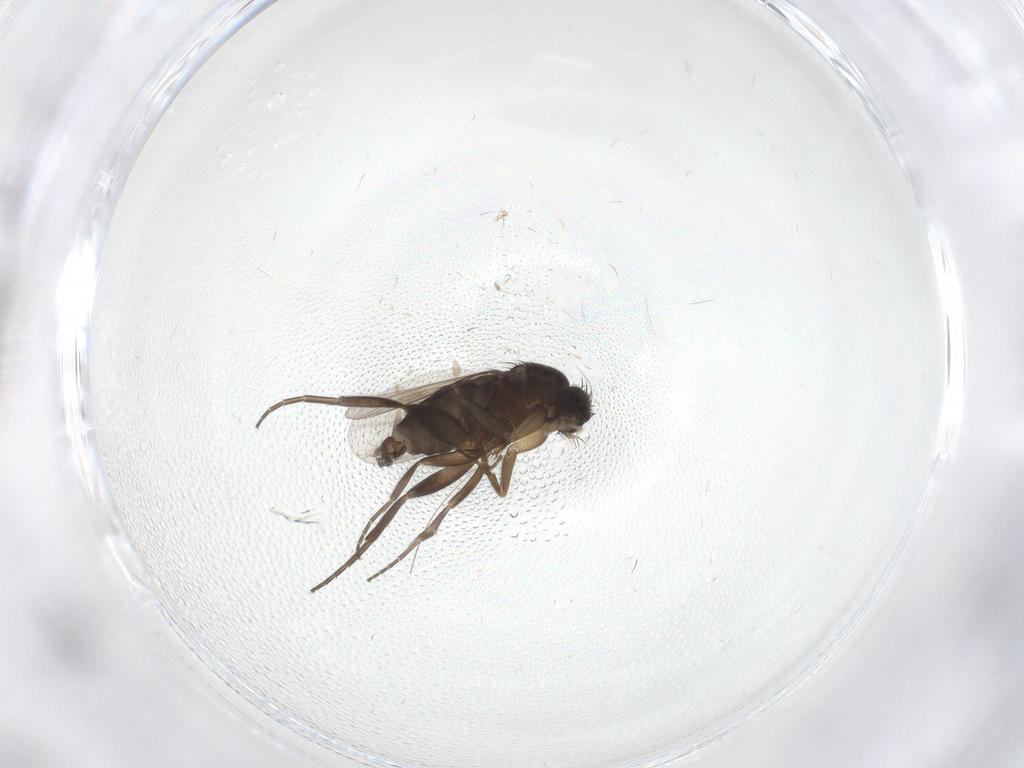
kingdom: Animalia
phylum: Arthropoda
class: Insecta
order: Diptera
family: Phoridae
